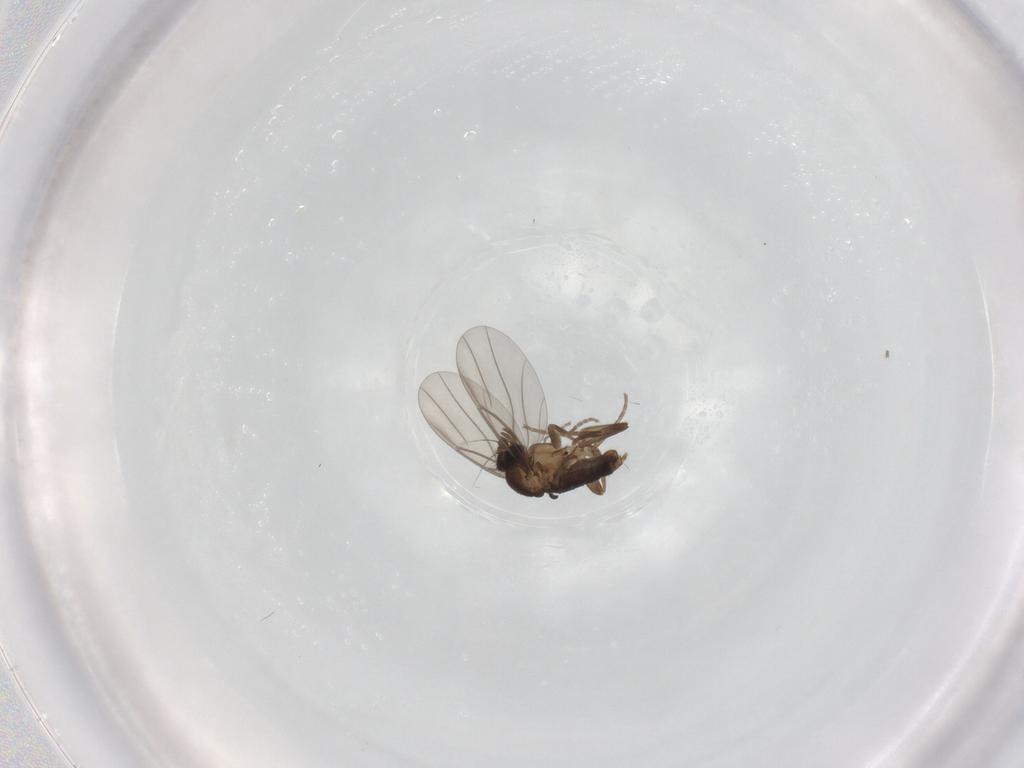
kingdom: Animalia
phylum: Arthropoda
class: Insecta
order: Diptera
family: Phoridae
